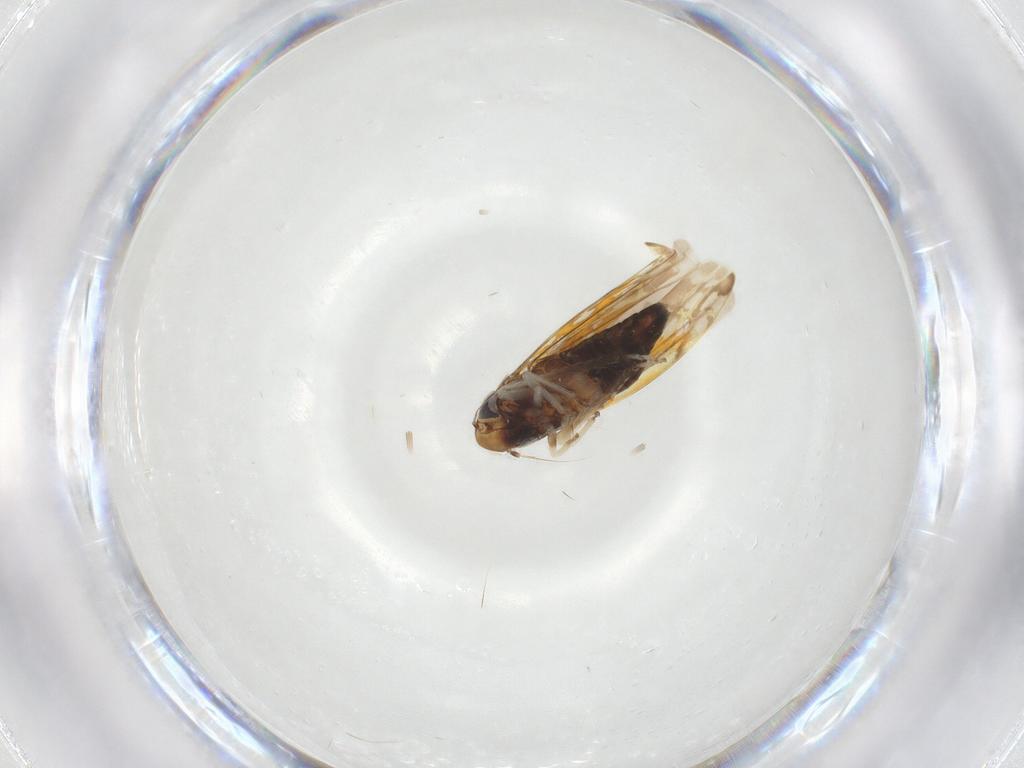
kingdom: Animalia
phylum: Arthropoda
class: Insecta
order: Hemiptera
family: Cicadellidae
